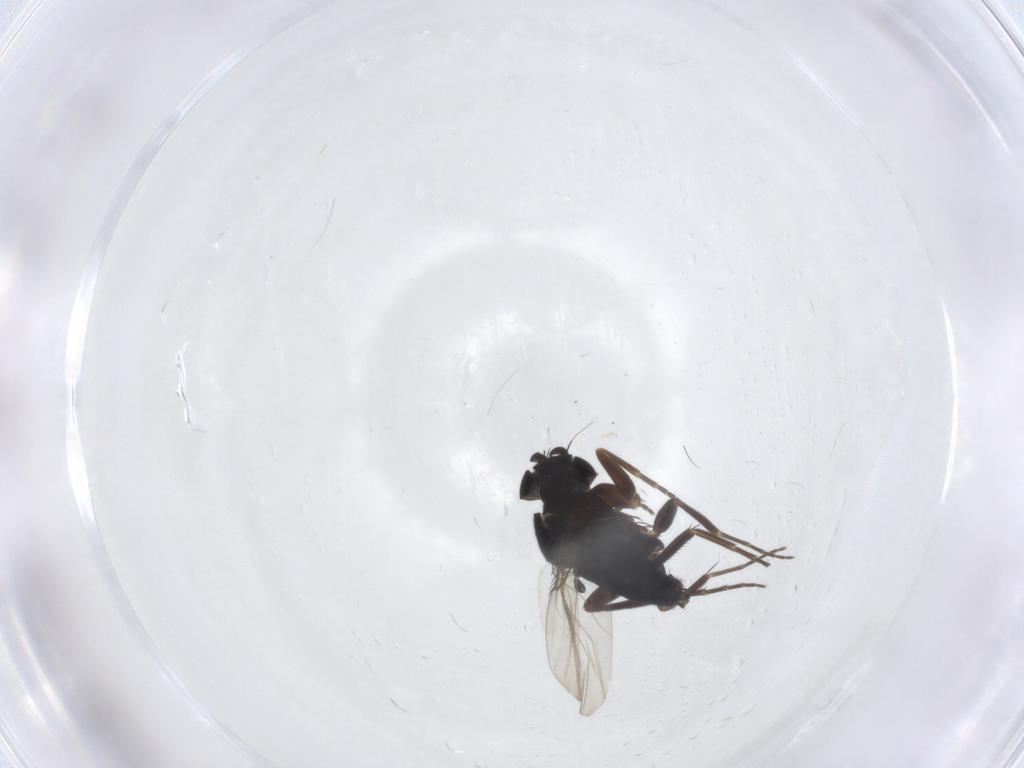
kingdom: Animalia
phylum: Arthropoda
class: Insecta
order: Diptera
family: Phoridae
